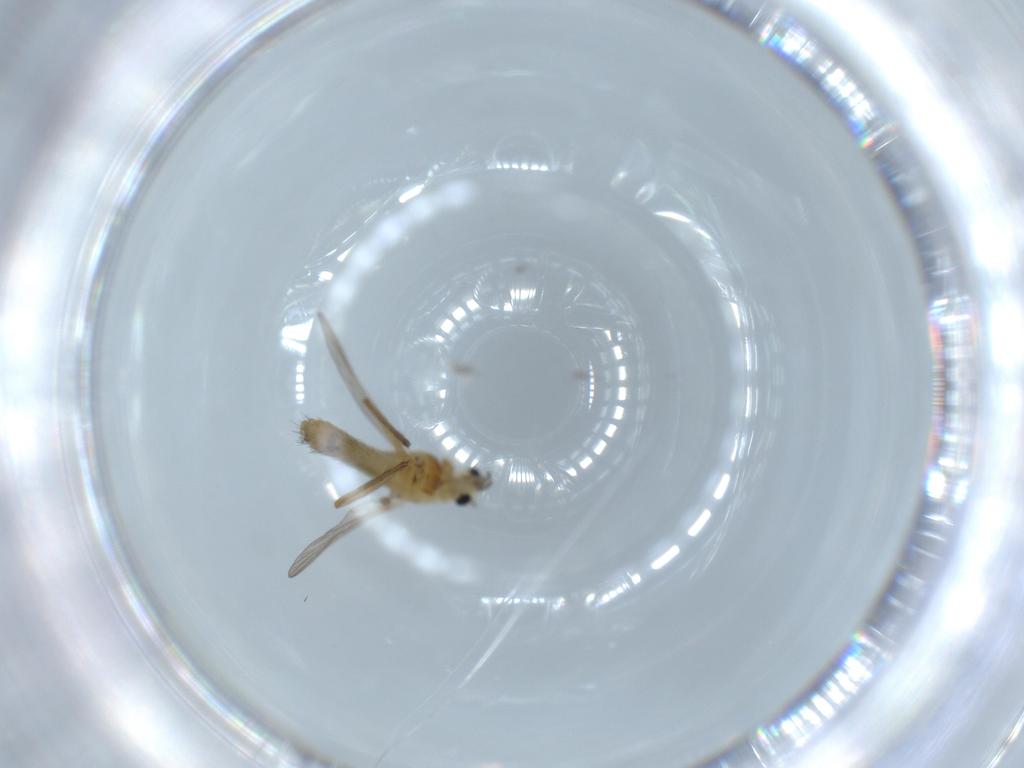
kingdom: Animalia
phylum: Arthropoda
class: Insecta
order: Diptera
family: Chironomidae
